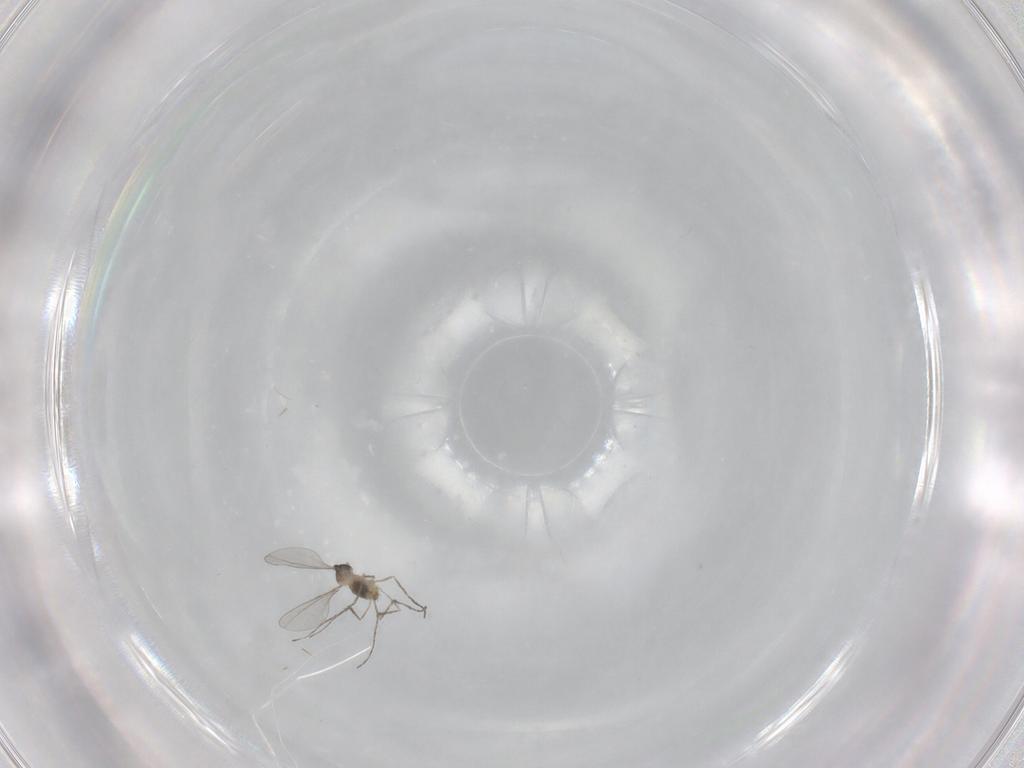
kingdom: Animalia
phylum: Arthropoda
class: Insecta
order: Diptera
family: Cecidomyiidae
